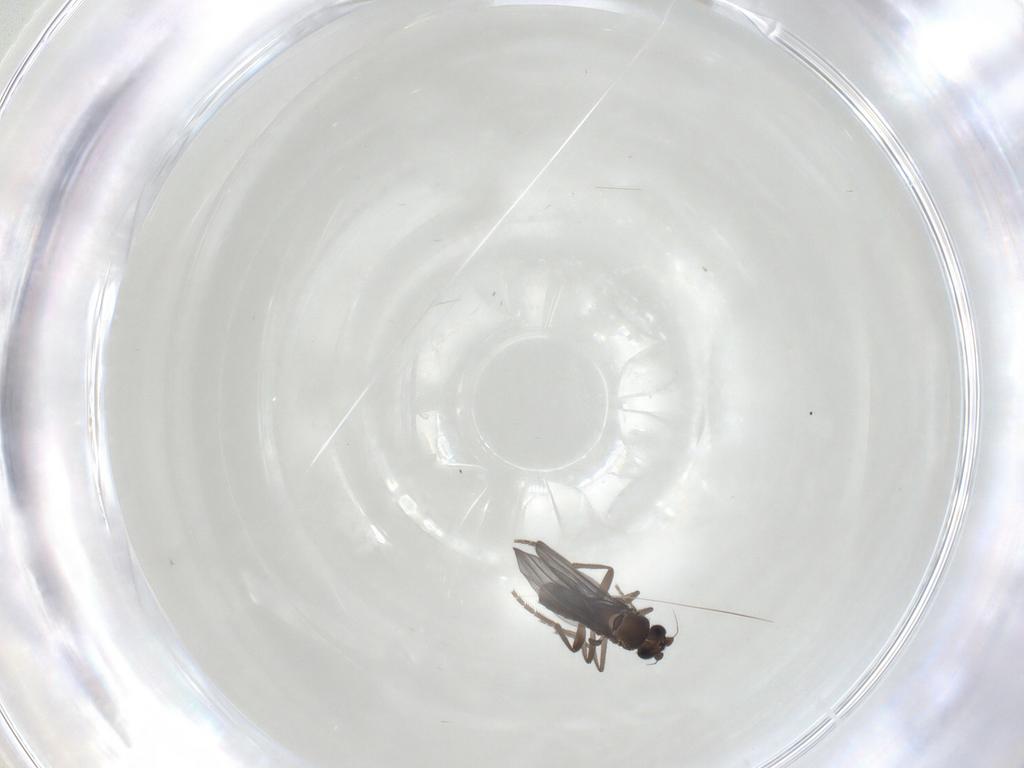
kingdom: Animalia
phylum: Arthropoda
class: Insecta
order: Diptera
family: Phoridae
